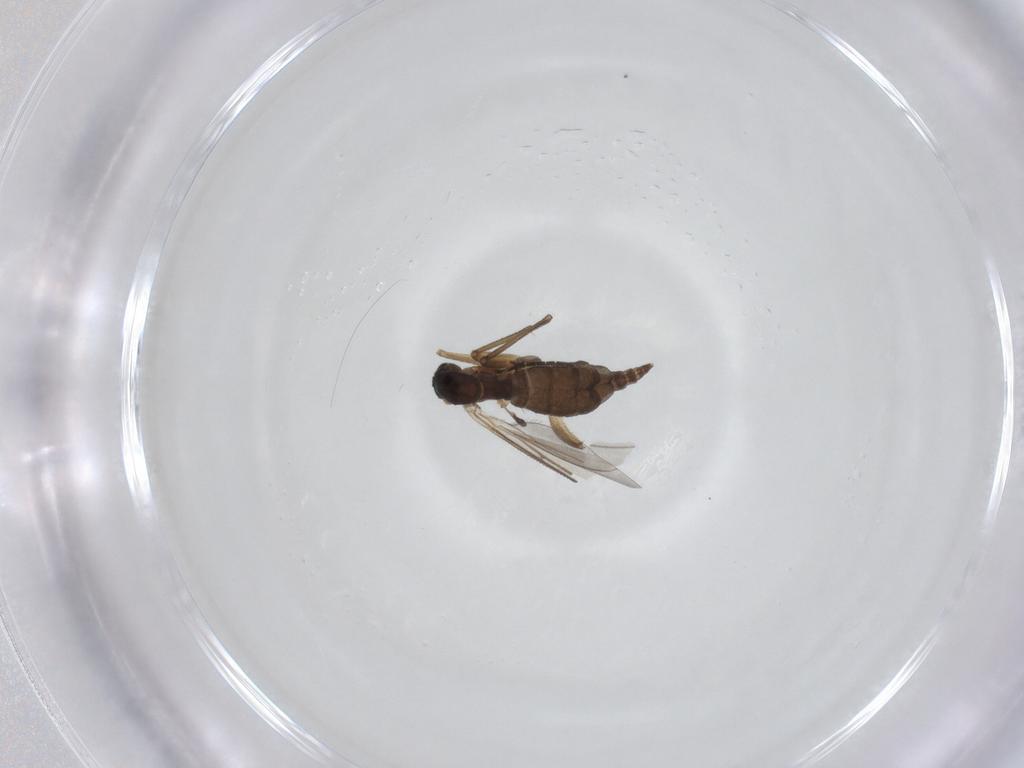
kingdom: Animalia
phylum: Arthropoda
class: Insecta
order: Diptera
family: Sciaridae
